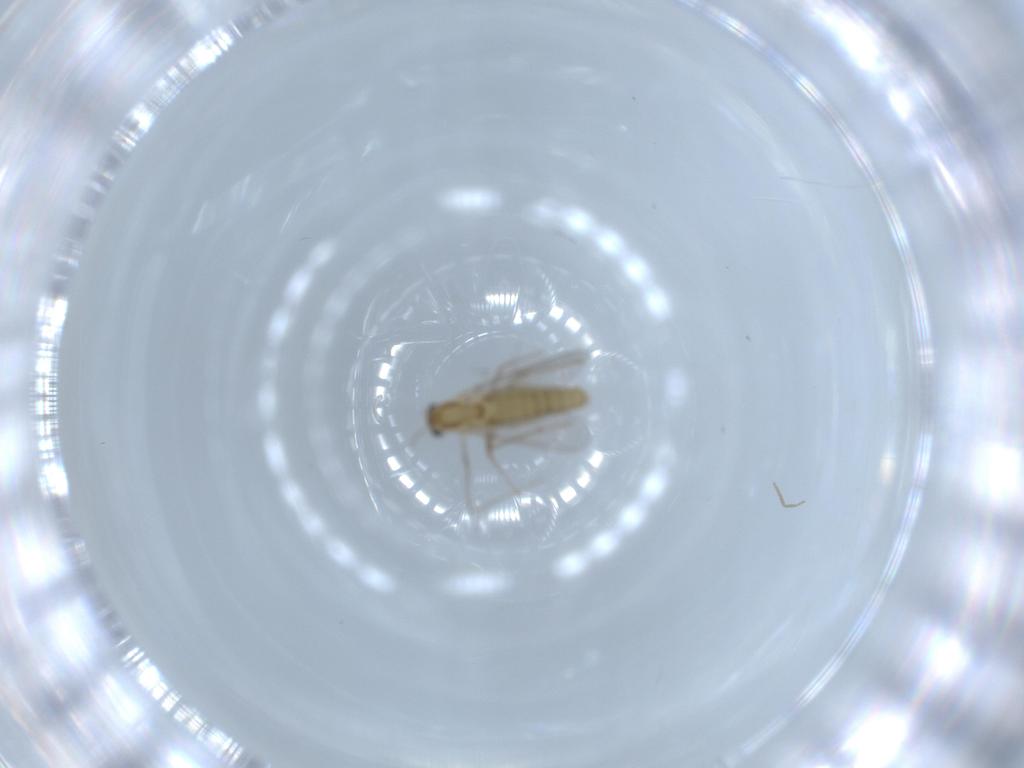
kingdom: Animalia
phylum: Arthropoda
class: Insecta
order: Diptera
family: Chironomidae
